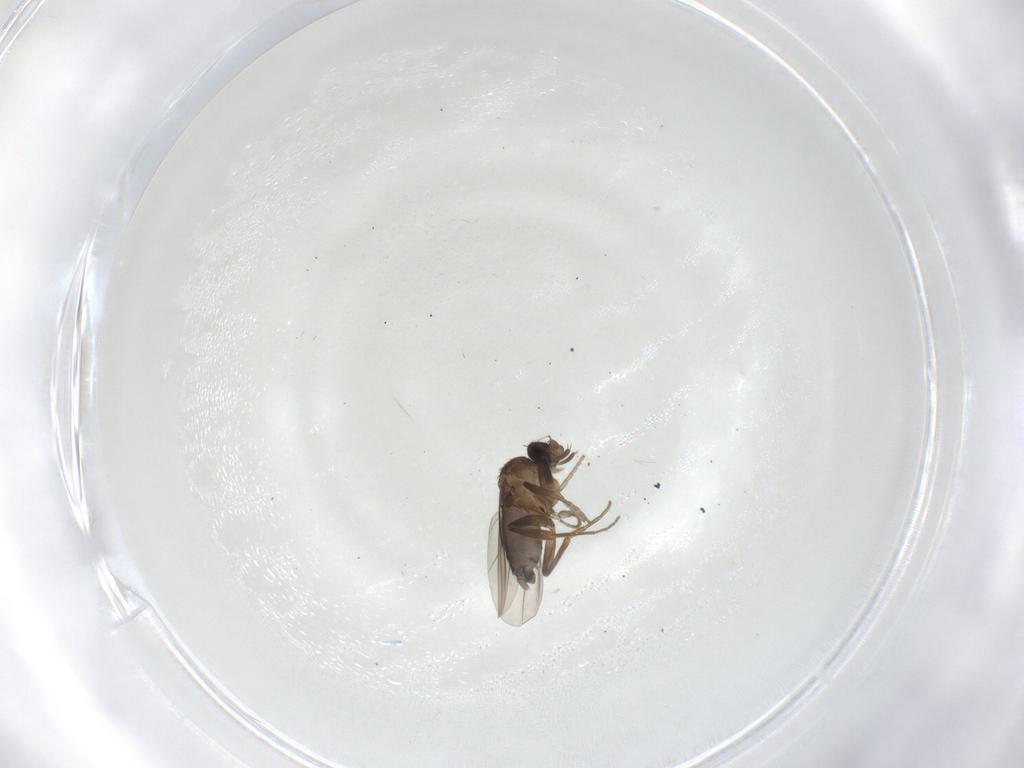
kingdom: Animalia
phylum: Arthropoda
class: Insecta
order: Diptera
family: Phoridae
